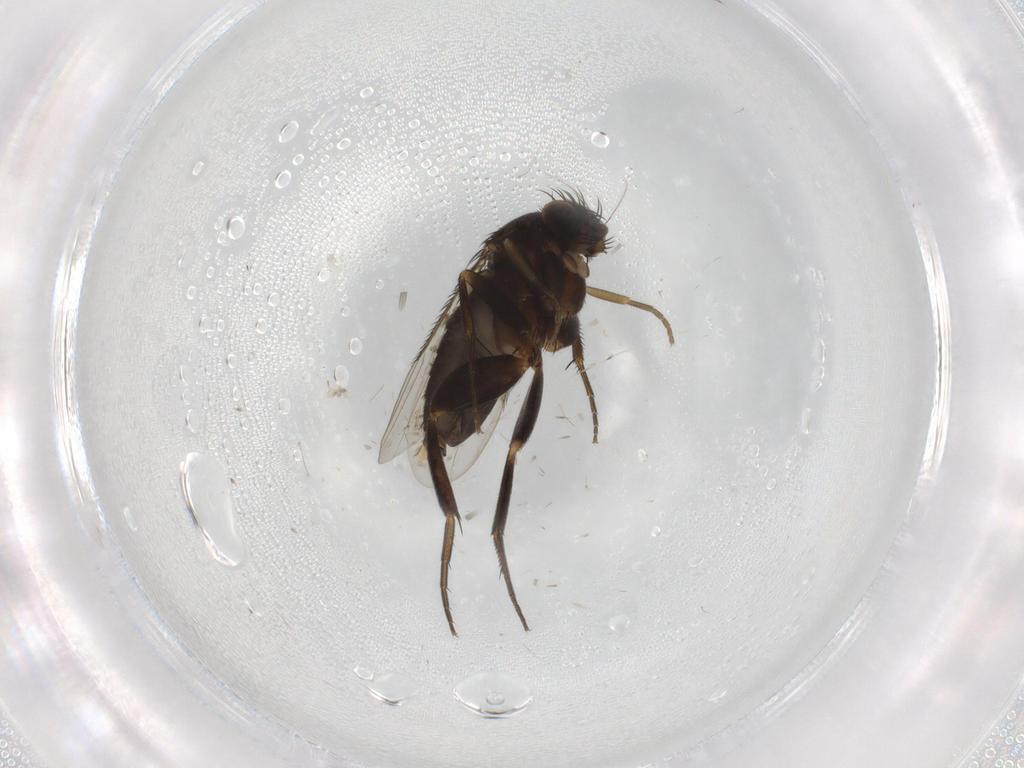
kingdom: Animalia
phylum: Arthropoda
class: Insecta
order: Diptera
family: Phoridae
